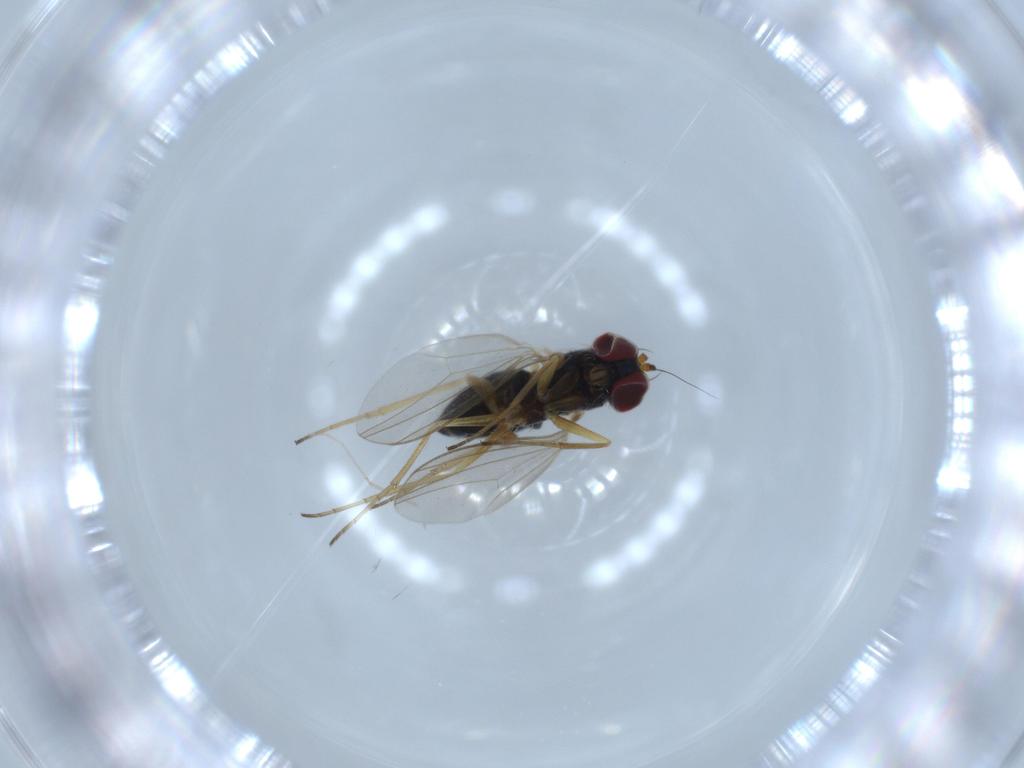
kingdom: Animalia
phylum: Arthropoda
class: Insecta
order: Diptera
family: Dolichopodidae
